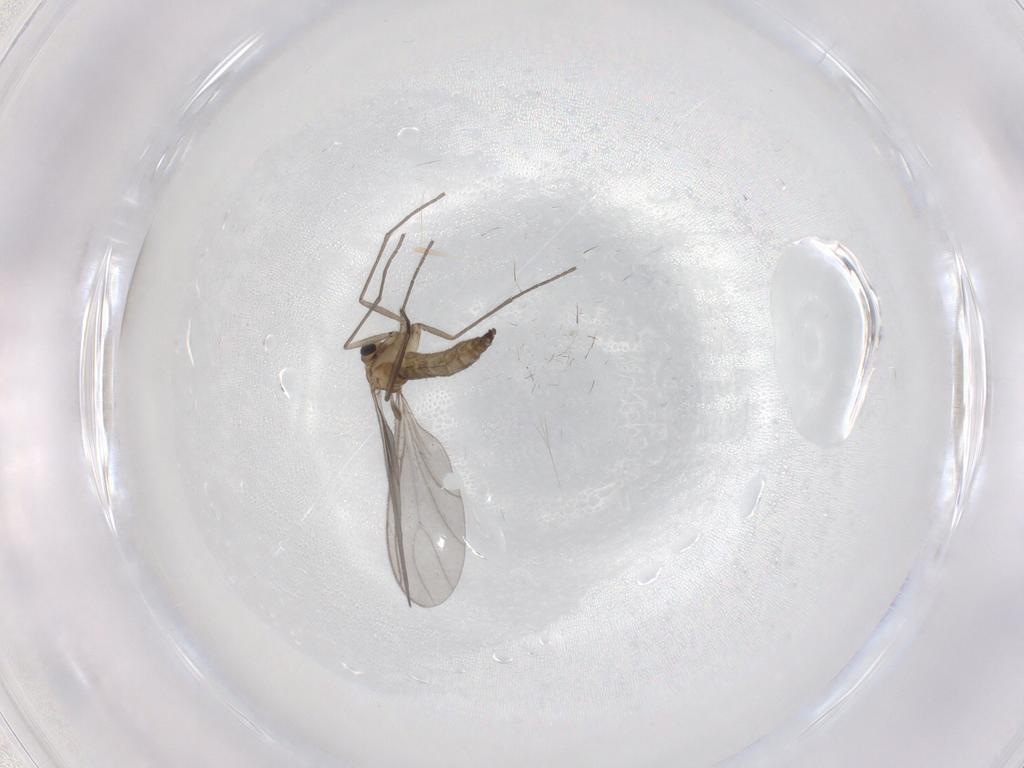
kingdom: Animalia
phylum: Arthropoda
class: Insecta
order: Diptera
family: Sciaridae
